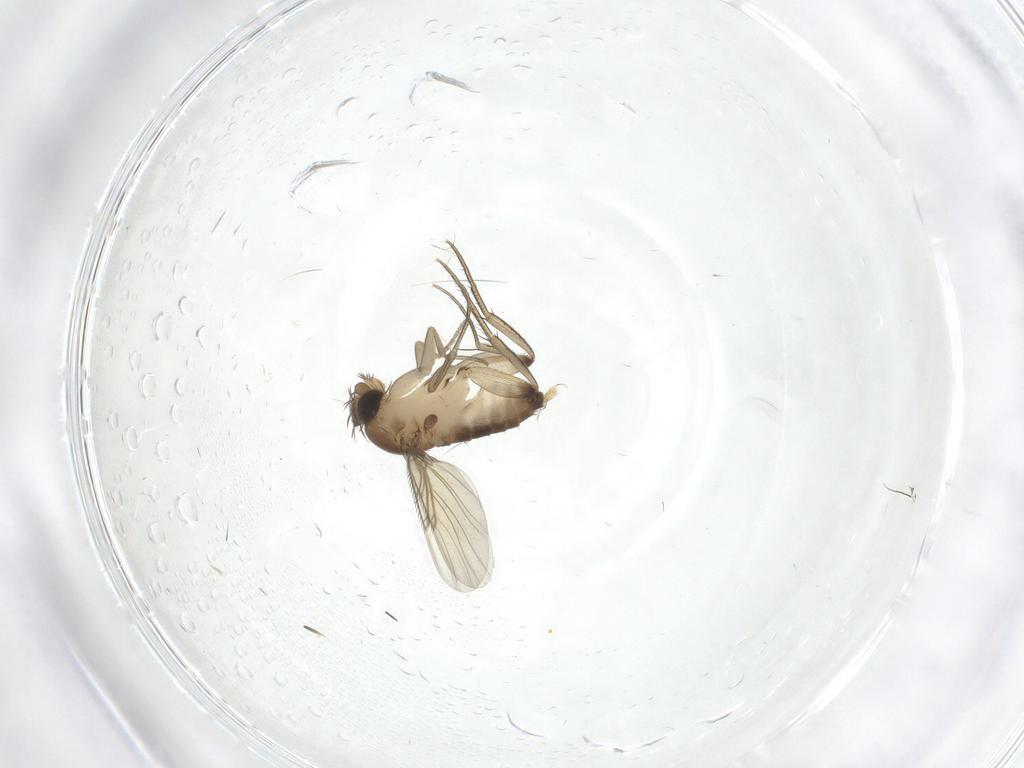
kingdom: Animalia
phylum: Arthropoda
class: Insecta
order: Diptera
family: Phoridae
